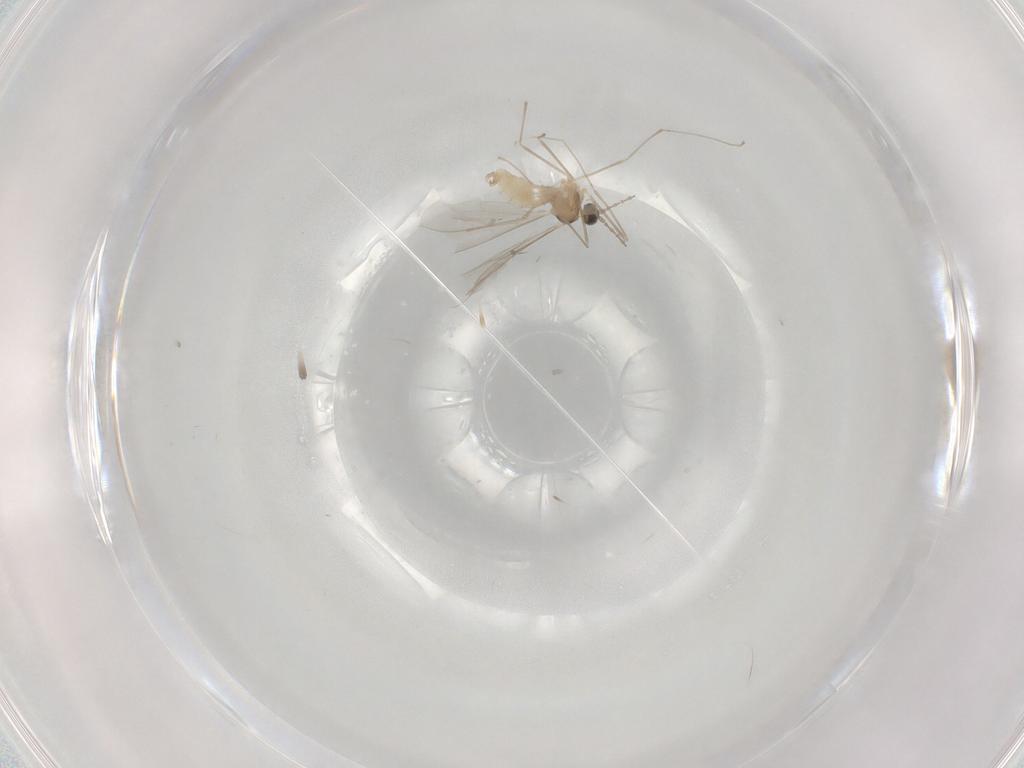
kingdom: Animalia
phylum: Arthropoda
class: Insecta
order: Diptera
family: Cecidomyiidae
